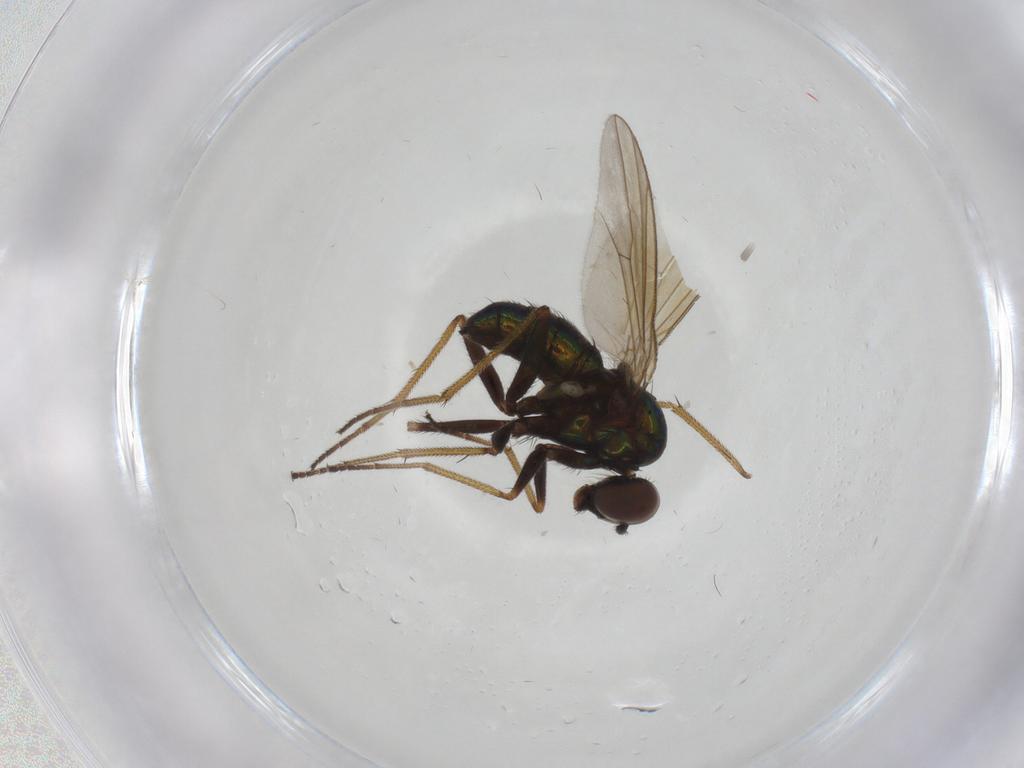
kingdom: Animalia
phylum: Arthropoda
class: Insecta
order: Diptera
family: Dolichopodidae
